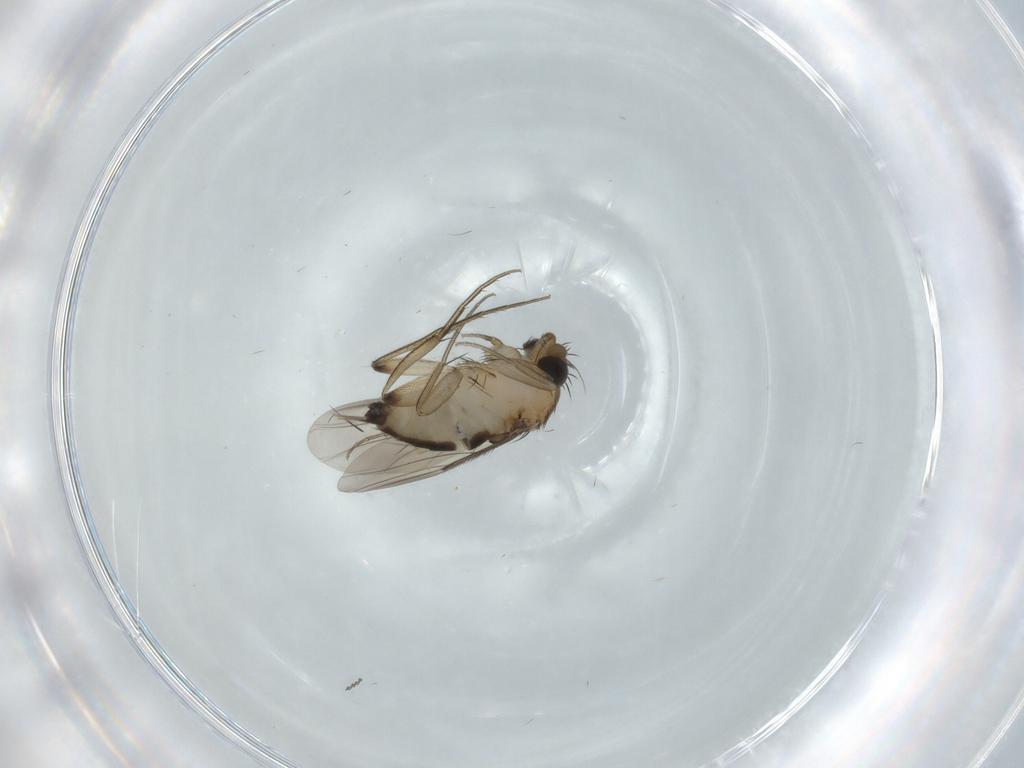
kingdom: Animalia
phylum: Arthropoda
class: Insecta
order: Diptera
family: Phoridae
